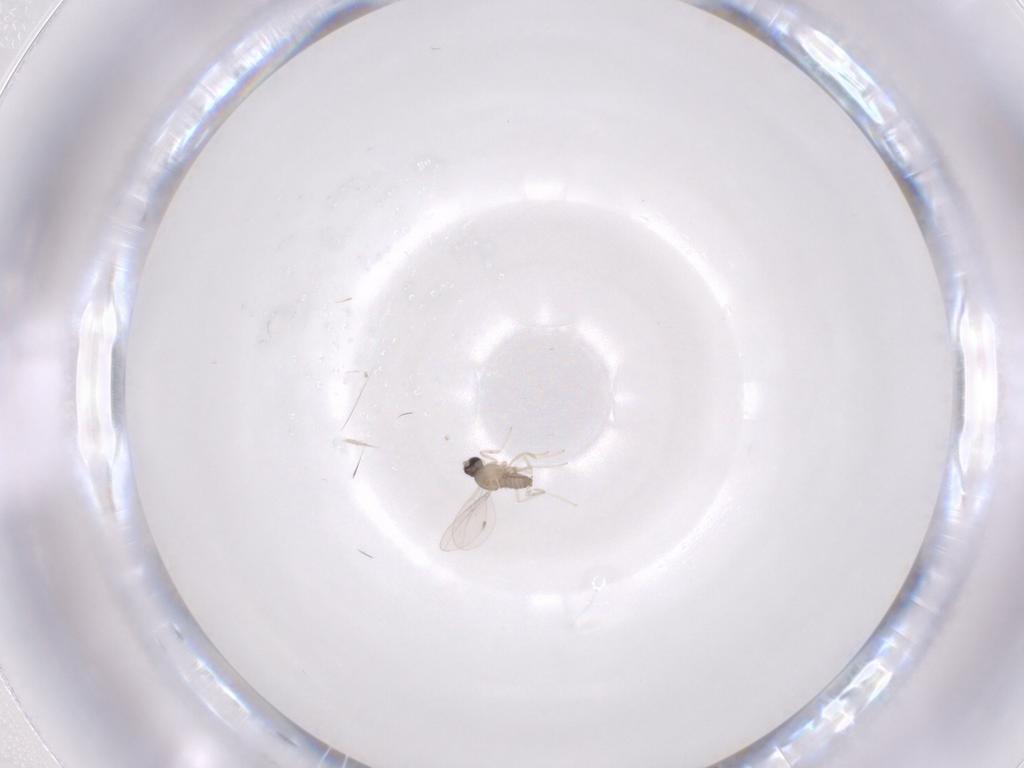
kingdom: Animalia
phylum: Arthropoda
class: Insecta
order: Diptera
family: Cecidomyiidae
